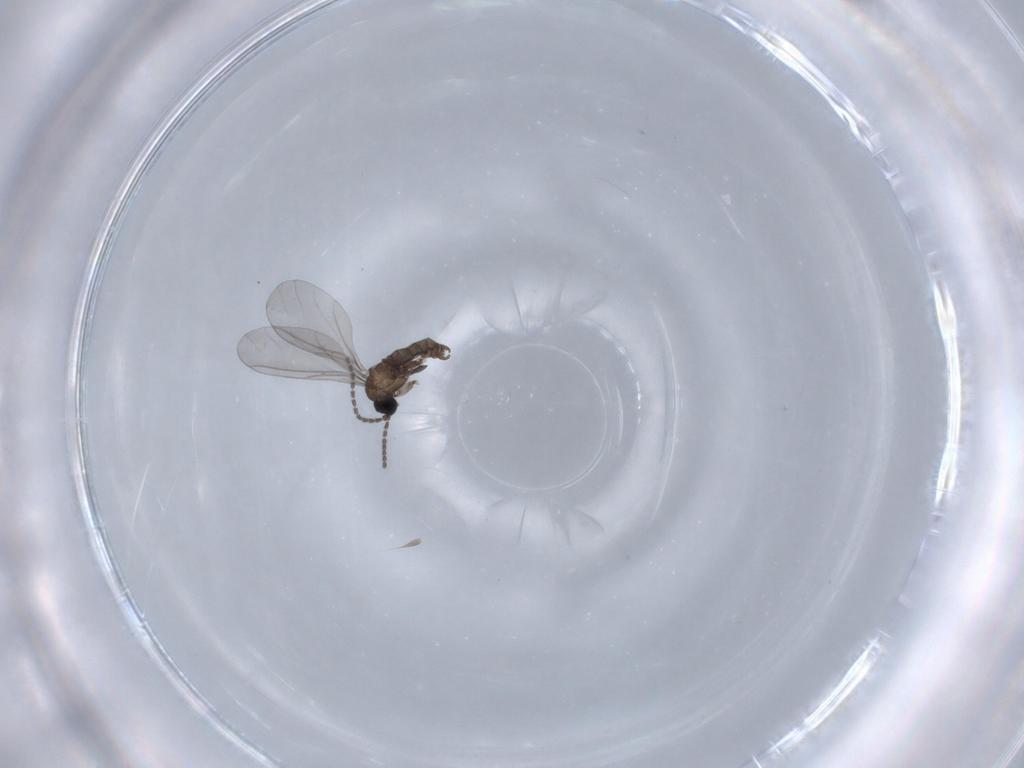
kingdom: Animalia
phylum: Arthropoda
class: Insecta
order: Diptera
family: Sciaridae
